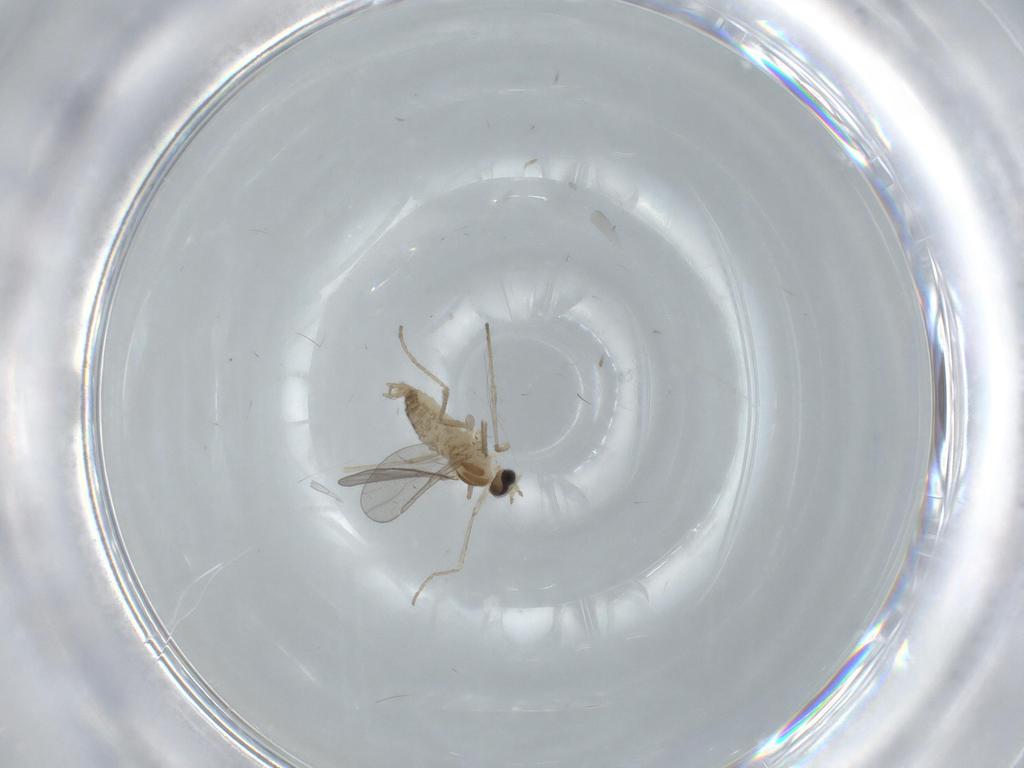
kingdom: Animalia
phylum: Arthropoda
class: Insecta
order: Diptera
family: Cecidomyiidae
